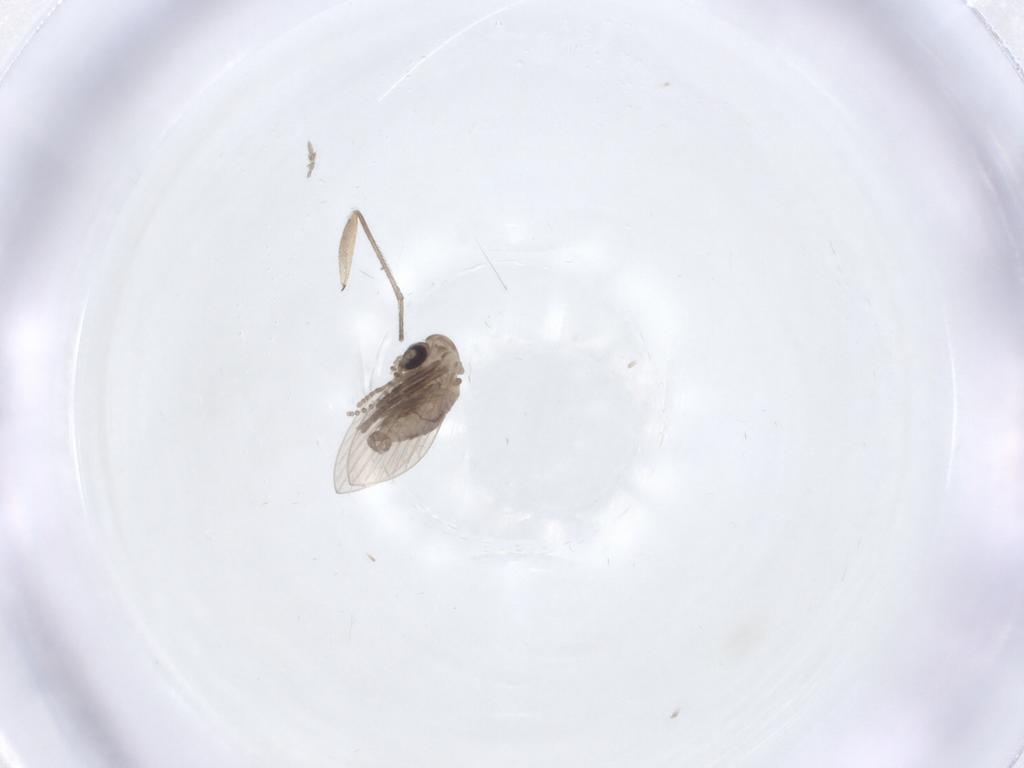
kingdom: Animalia
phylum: Arthropoda
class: Insecta
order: Diptera
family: Psychodidae
